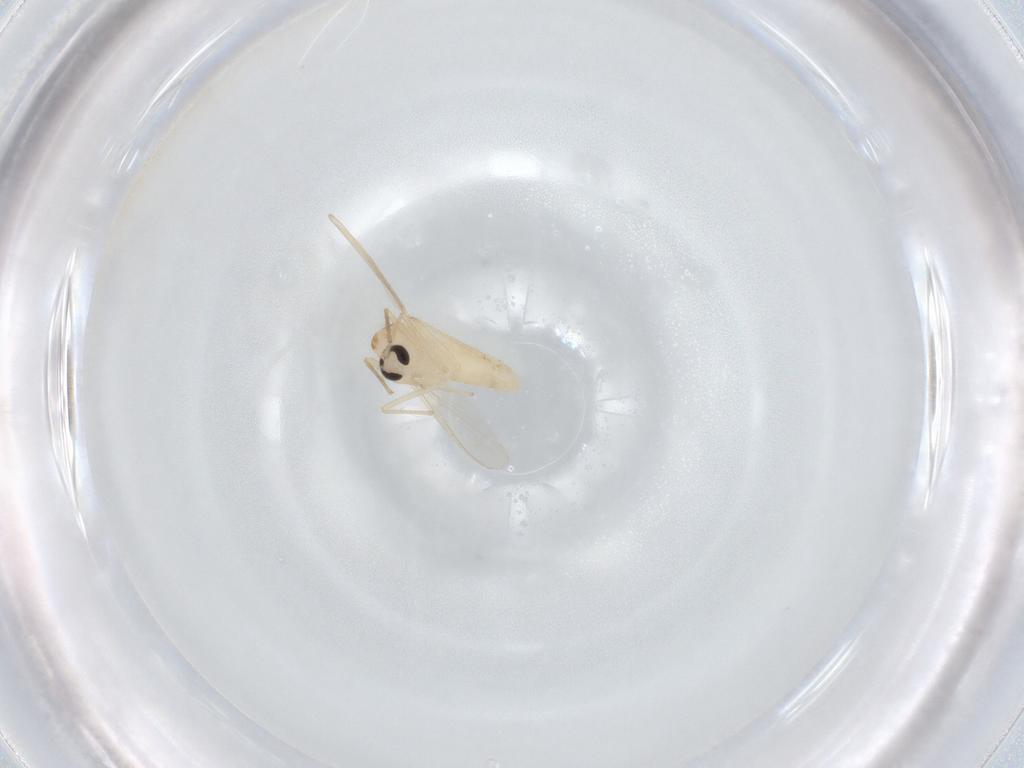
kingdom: Animalia
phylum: Arthropoda
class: Insecta
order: Diptera
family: Chironomidae
